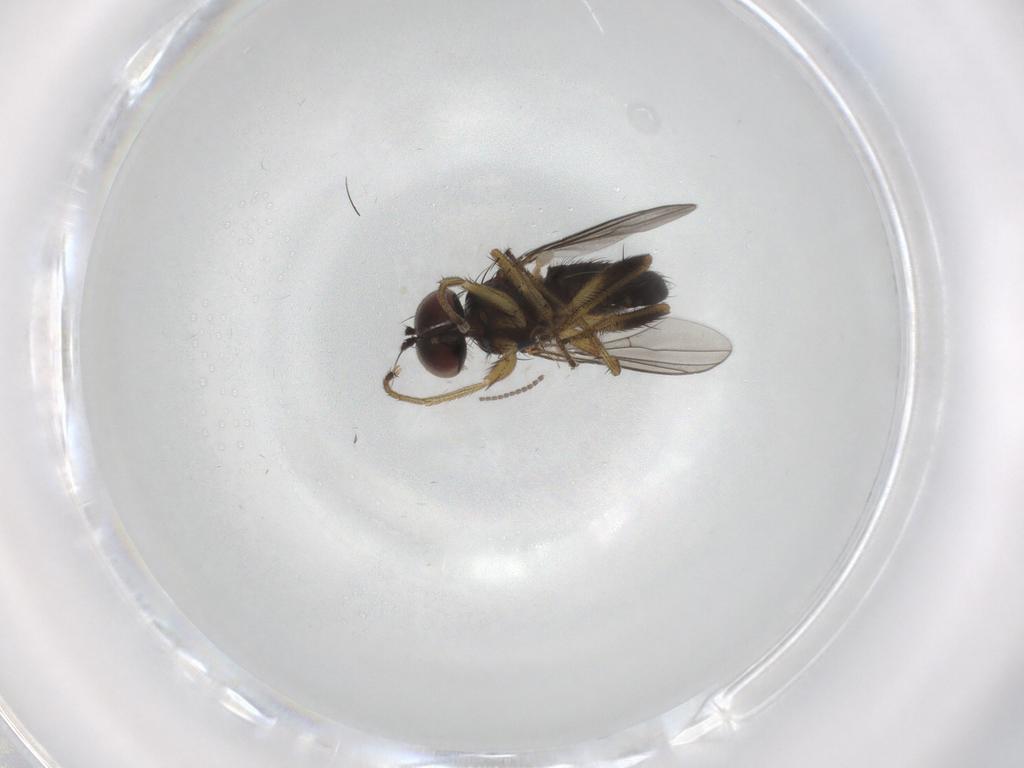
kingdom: Animalia
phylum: Arthropoda
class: Insecta
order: Diptera
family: Dolichopodidae
